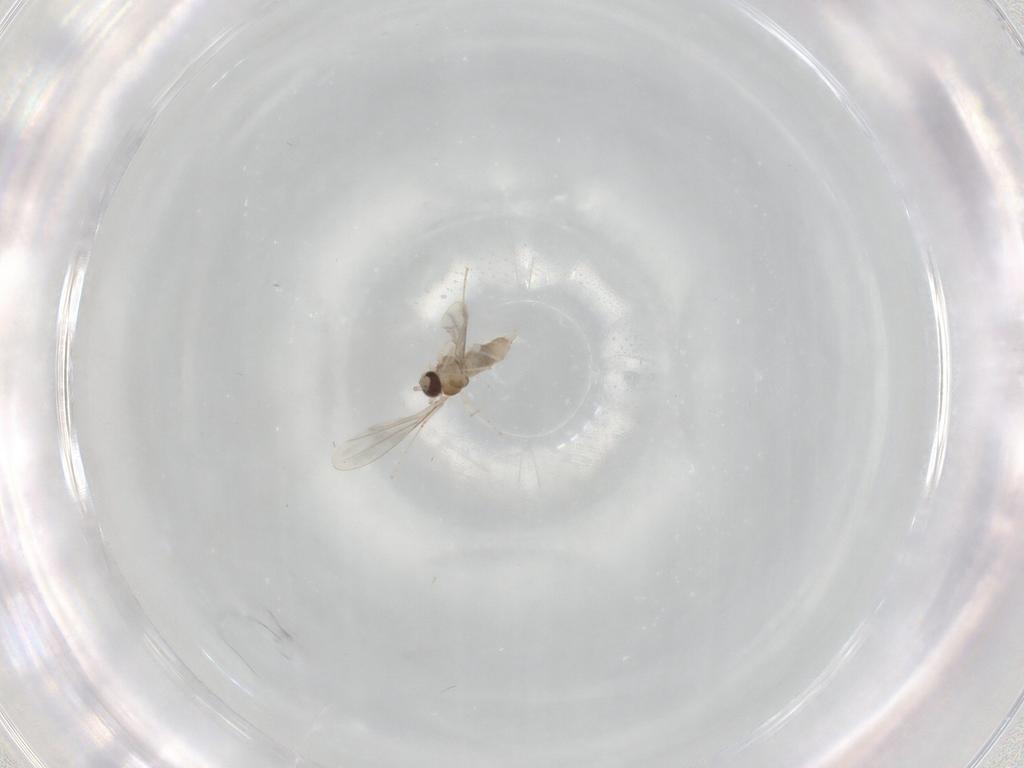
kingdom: Animalia
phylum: Arthropoda
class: Insecta
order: Diptera
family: Cecidomyiidae
